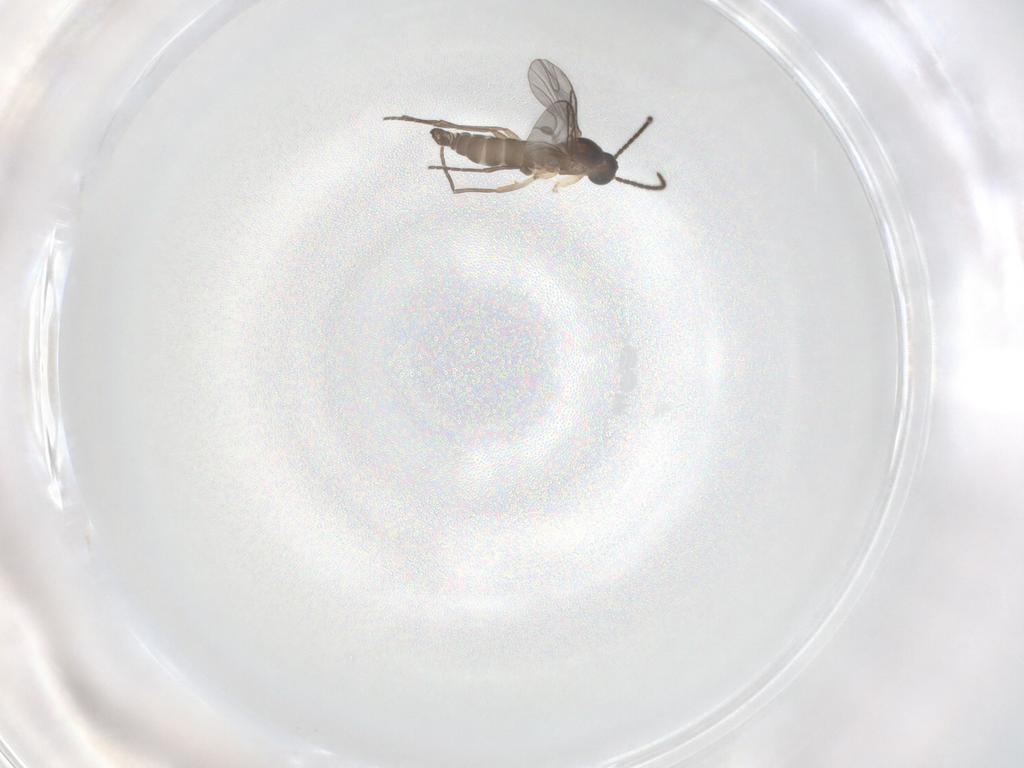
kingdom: Animalia
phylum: Arthropoda
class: Insecta
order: Diptera
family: Sciaridae
